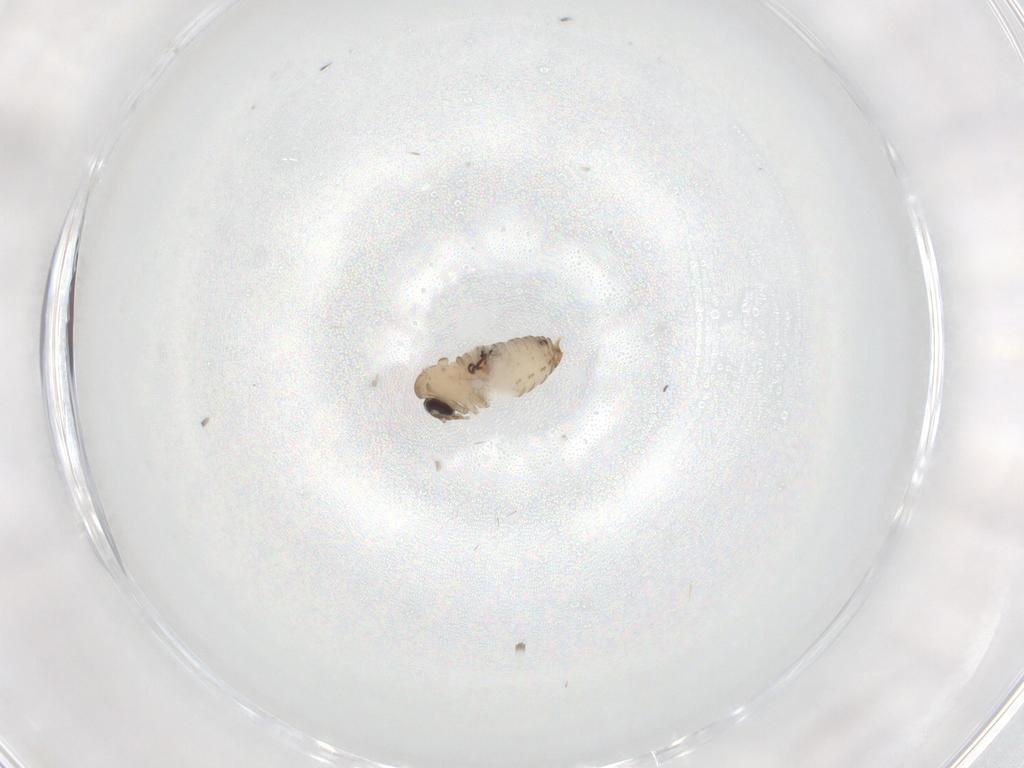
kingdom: Animalia
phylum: Arthropoda
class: Insecta
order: Diptera
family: Psychodidae
